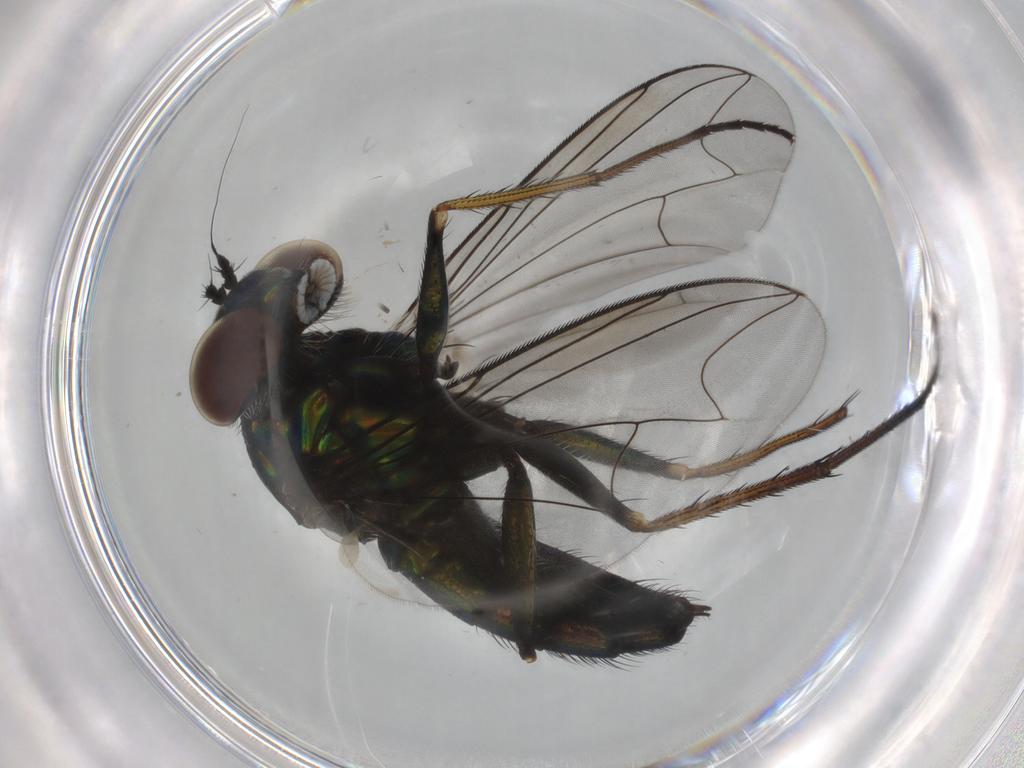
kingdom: Animalia
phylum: Arthropoda
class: Insecta
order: Diptera
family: Dolichopodidae
